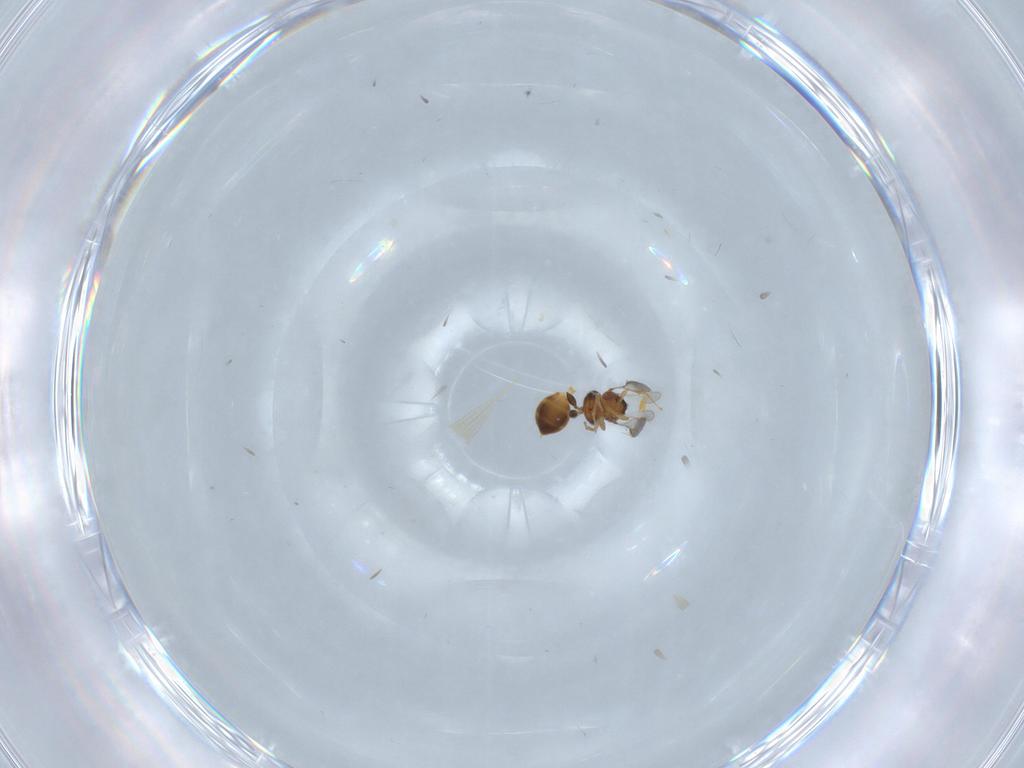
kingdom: Animalia
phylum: Arthropoda
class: Insecta
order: Hymenoptera
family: Scelionidae
